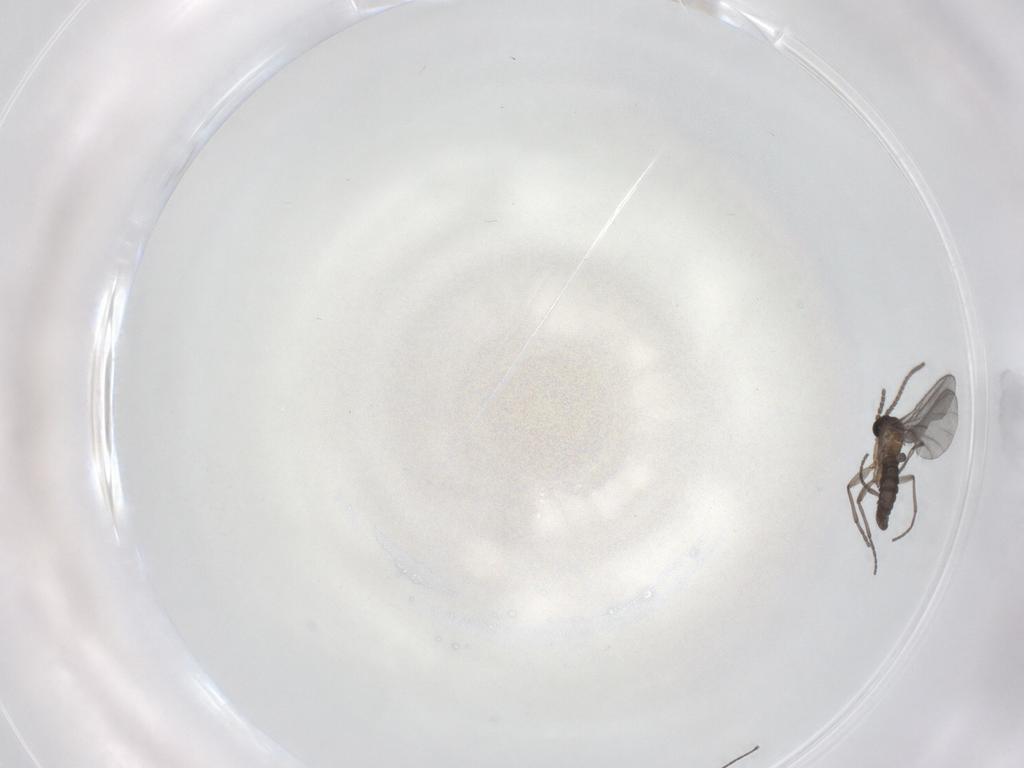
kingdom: Animalia
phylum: Arthropoda
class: Insecta
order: Diptera
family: Sciaridae
